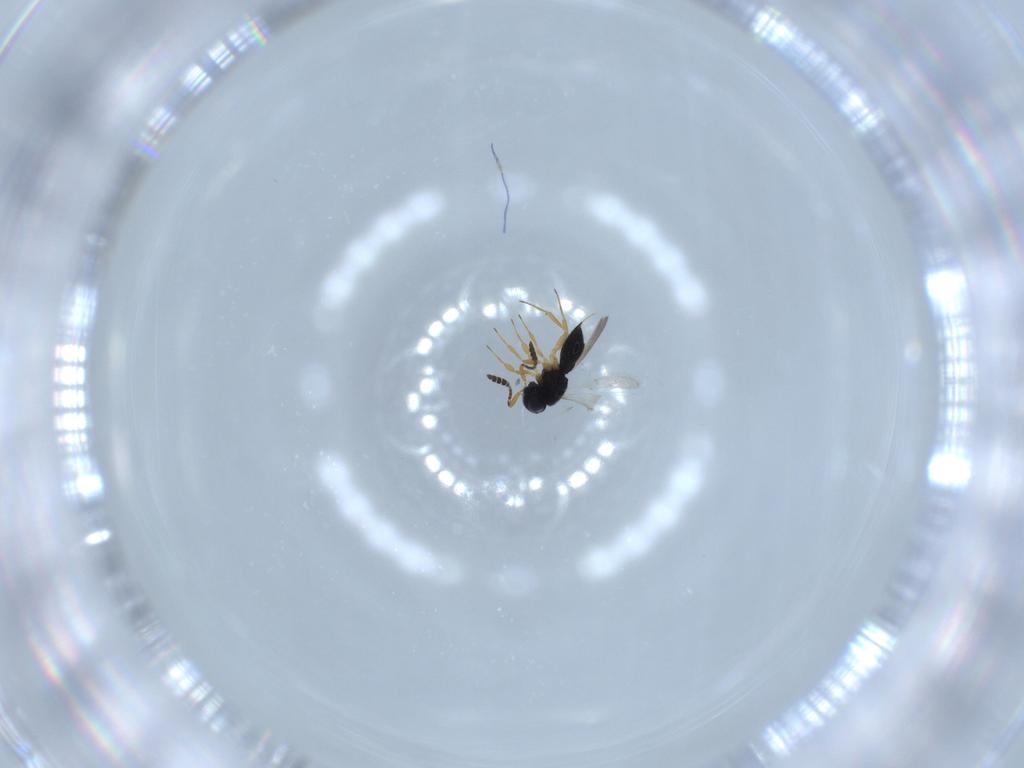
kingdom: Animalia
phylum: Arthropoda
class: Insecta
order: Hymenoptera
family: Scelionidae
